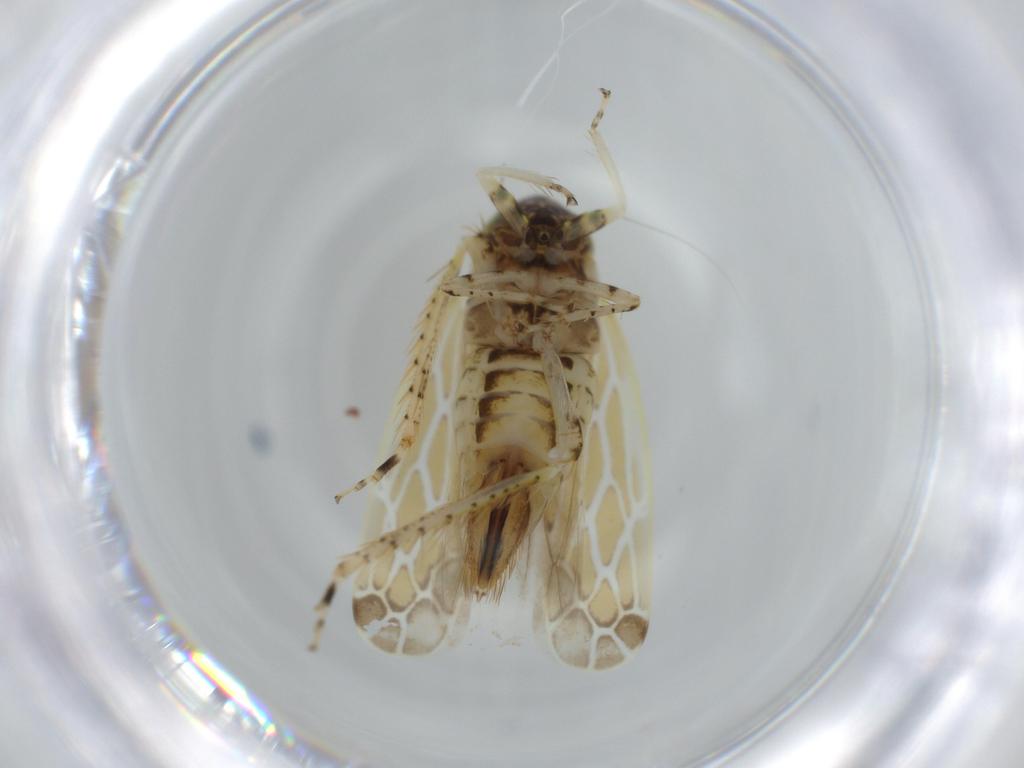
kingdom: Animalia
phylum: Arthropoda
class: Insecta
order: Hemiptera
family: Cicadellidae
